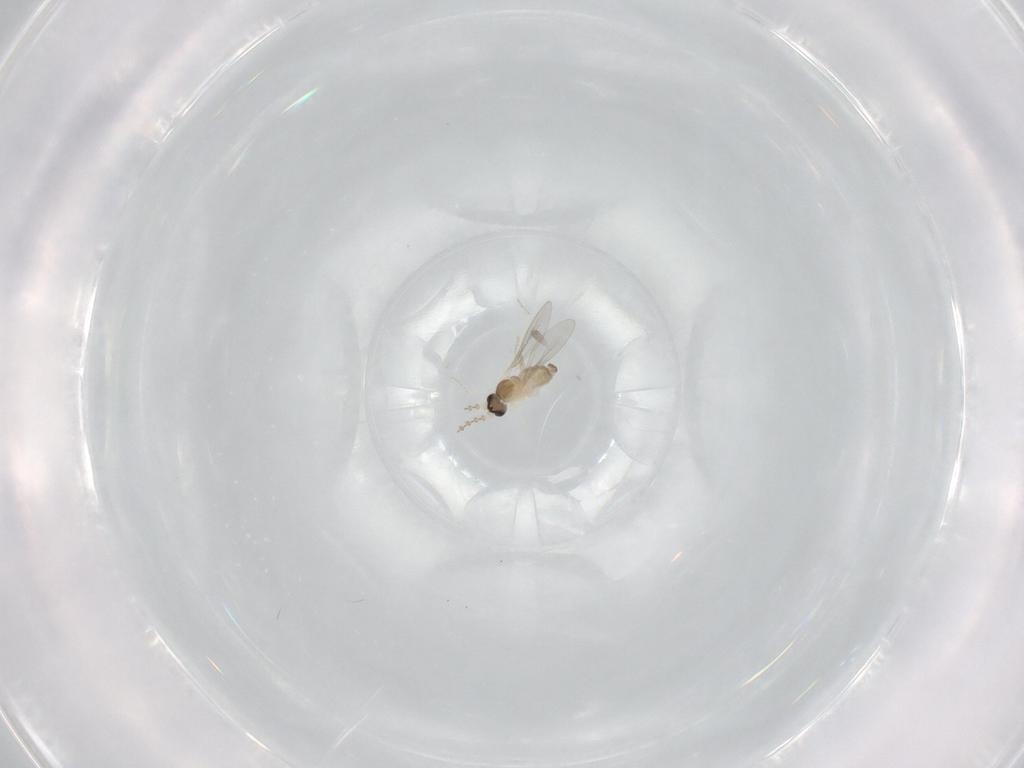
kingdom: Animalia
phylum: Arthropoda
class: Insecta
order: Diptera
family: Cecidomyiidae
